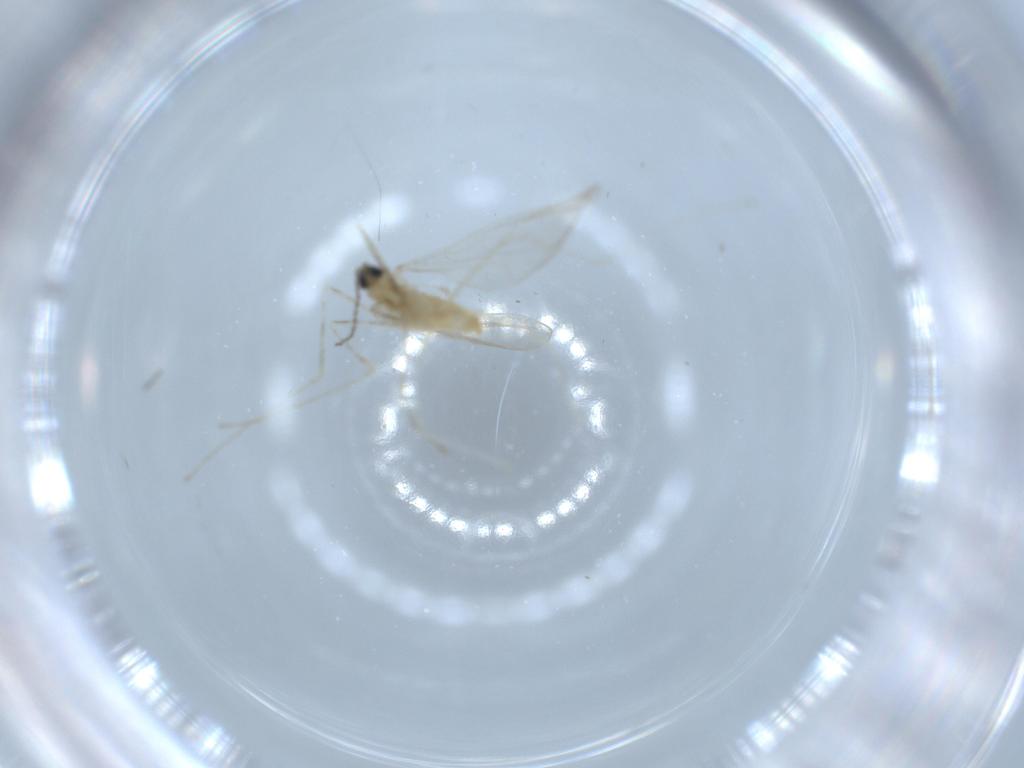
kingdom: Animalia
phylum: Arthropoda
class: Insecta
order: Diptera
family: Cecidomyiidae
